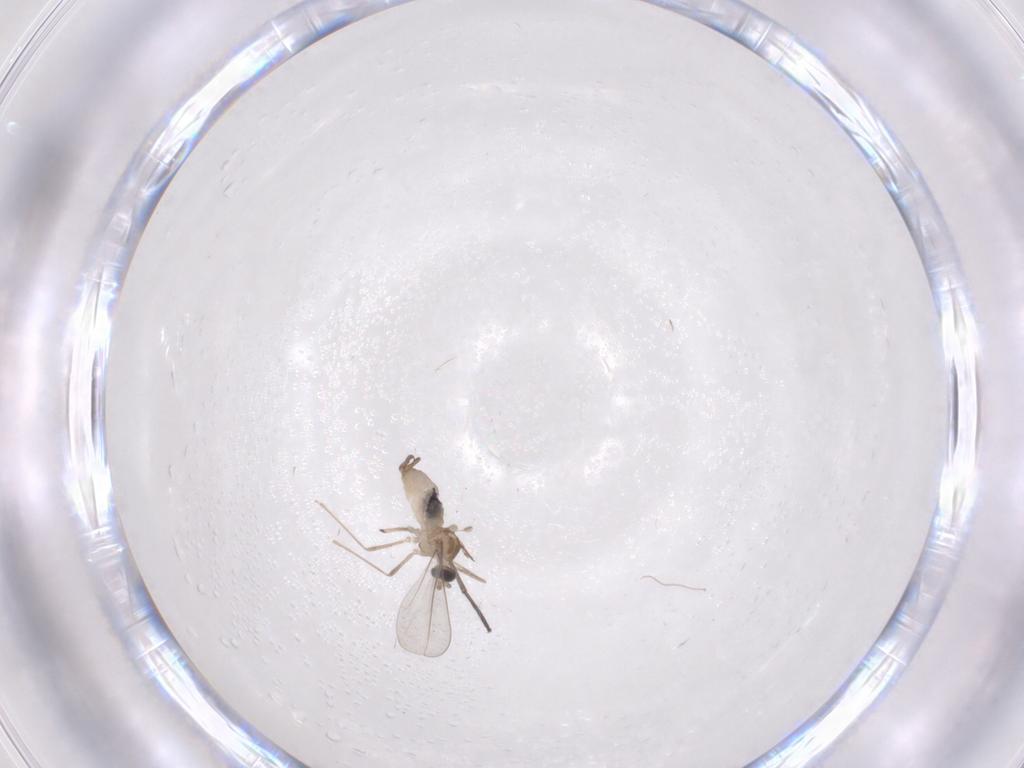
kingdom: Animalia
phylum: Arthropoda
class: Insecta
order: Diptera
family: Sciaridae
